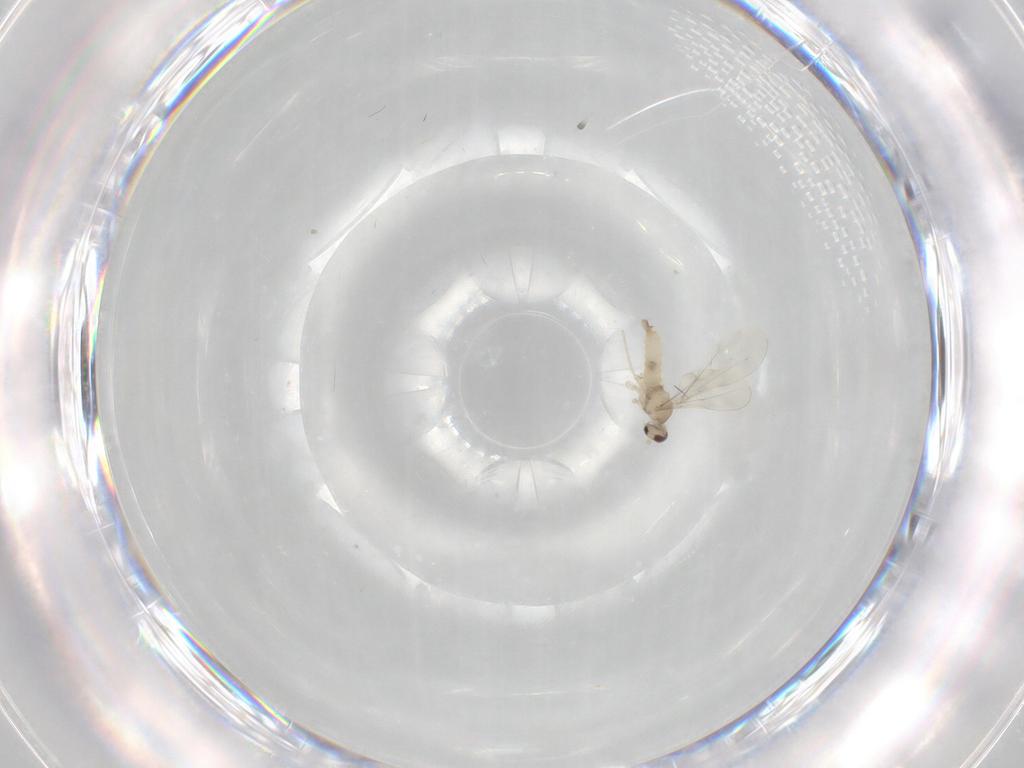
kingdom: Animalia
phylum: Arthropoda
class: Insecta
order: Diptera
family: Cecidomyiidae
